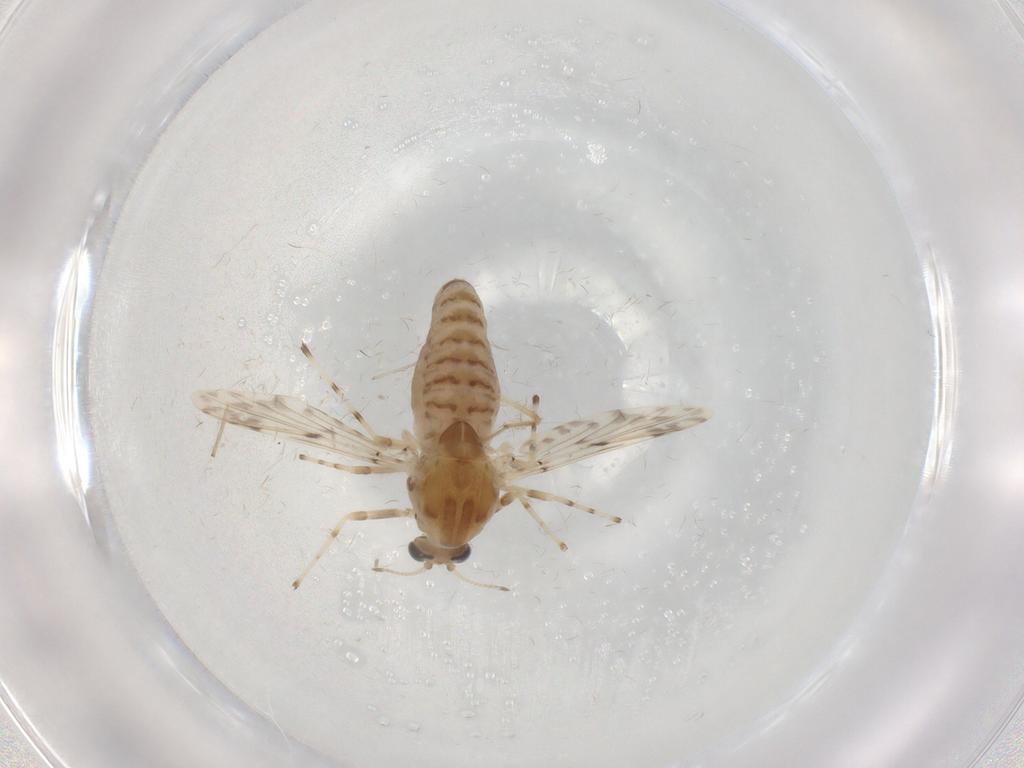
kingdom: Animalia
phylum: Arthropoda
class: Insecta
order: Diptera
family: Chironomidae
